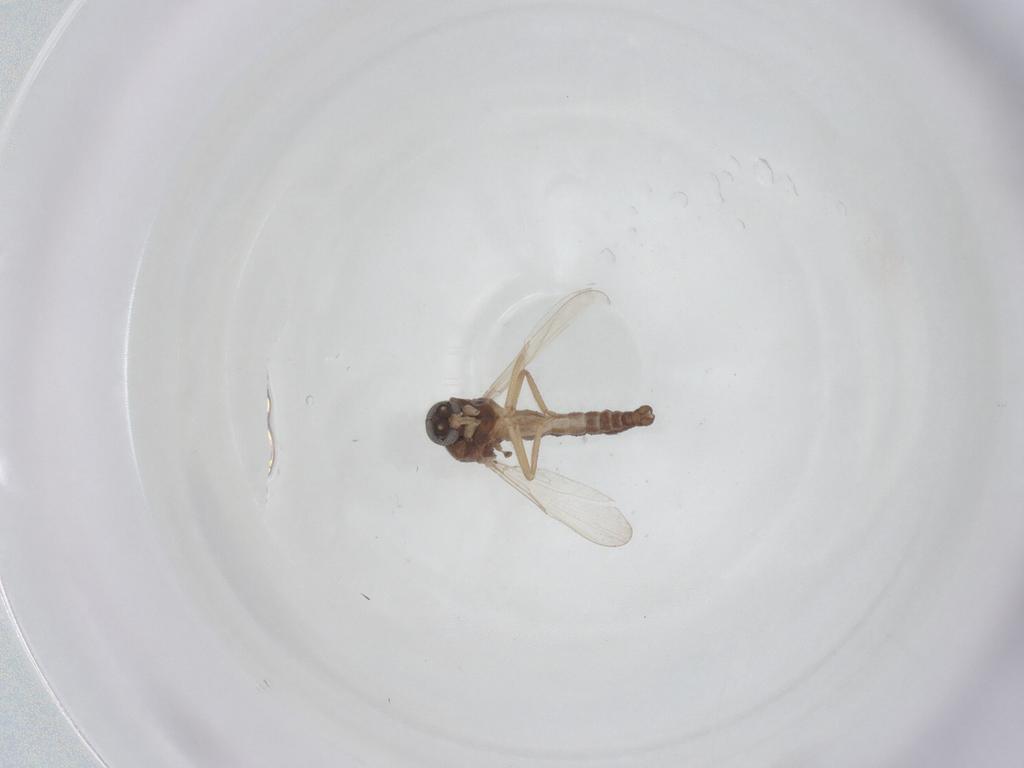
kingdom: Animalia
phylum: Arthropoda
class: Insecta
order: Diptera
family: Ceratopogonidae
